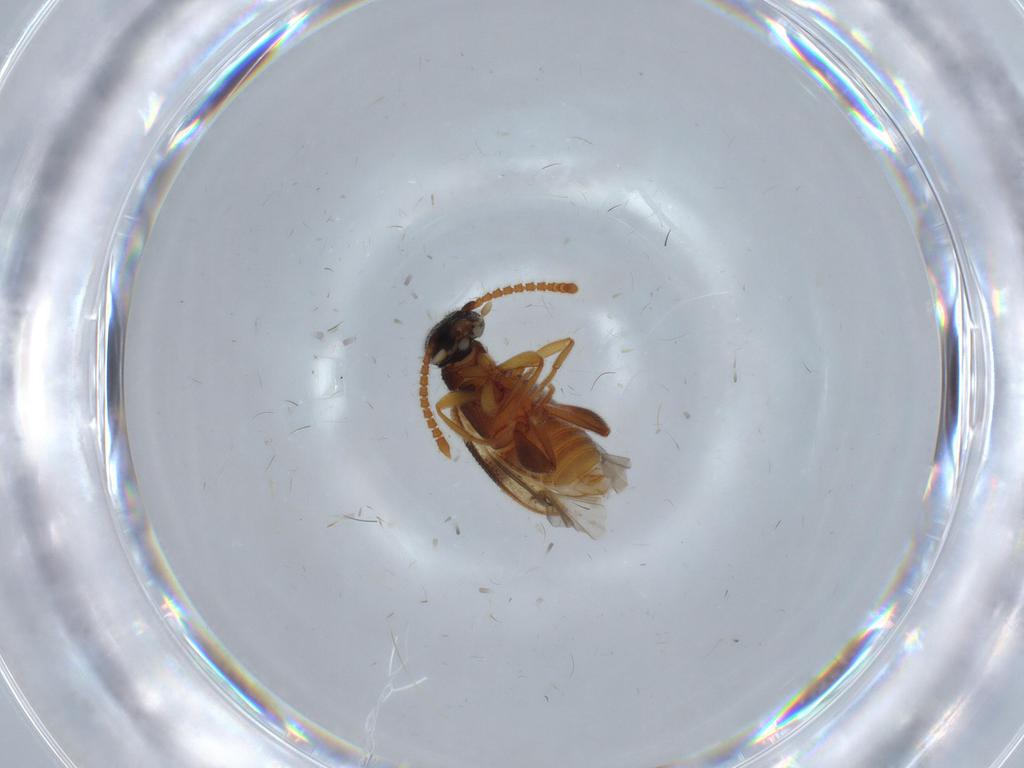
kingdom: Animalia
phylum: Arthropoda
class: Insecta
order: Coleoptera
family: Aderidae
